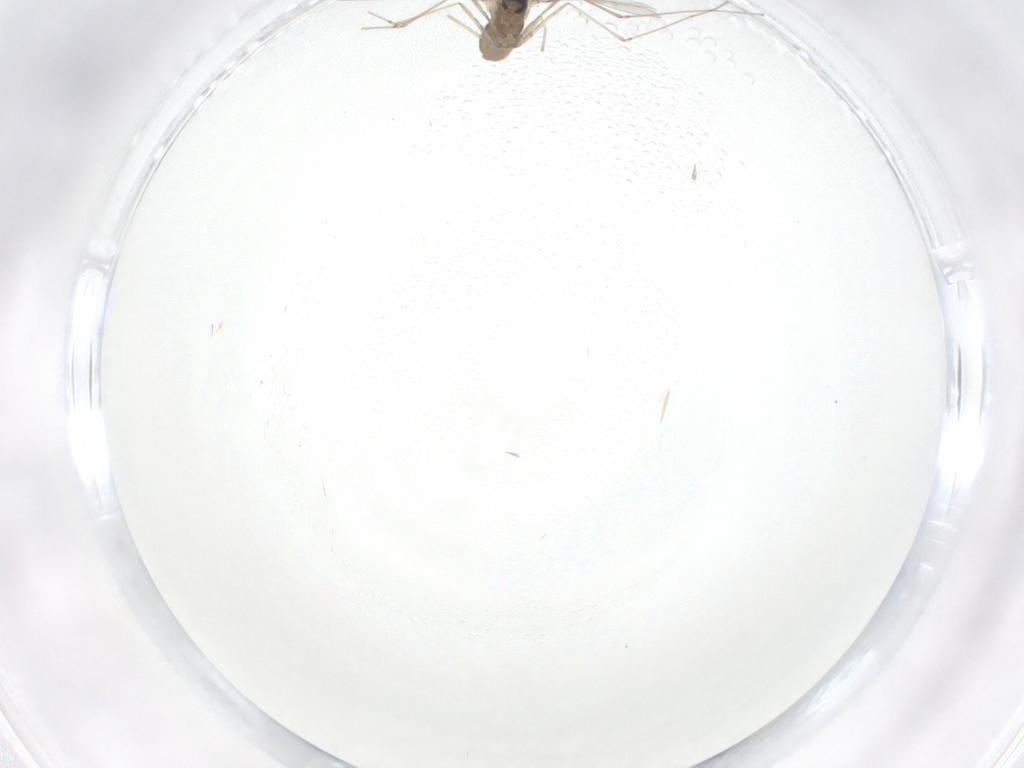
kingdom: Animalia
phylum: Arthropoda
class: Insecta
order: Diptera
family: Cecidomyiidae
